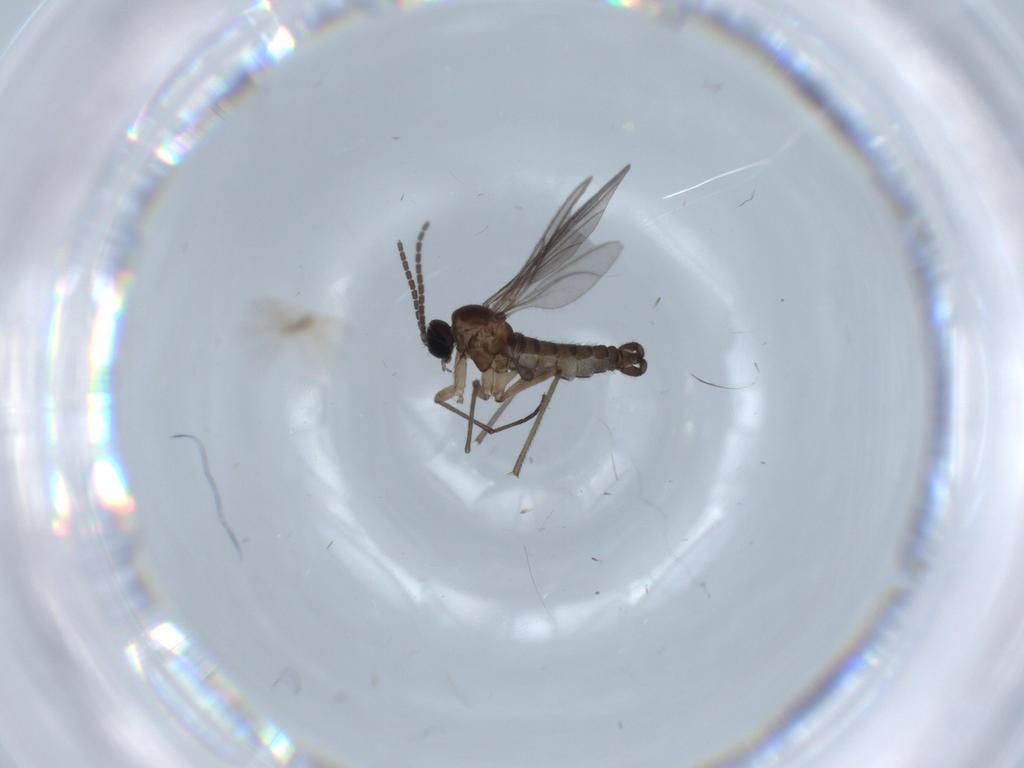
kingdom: Animalia
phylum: Arthropoda
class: Insecta
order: Diptera
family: Sciaridae
